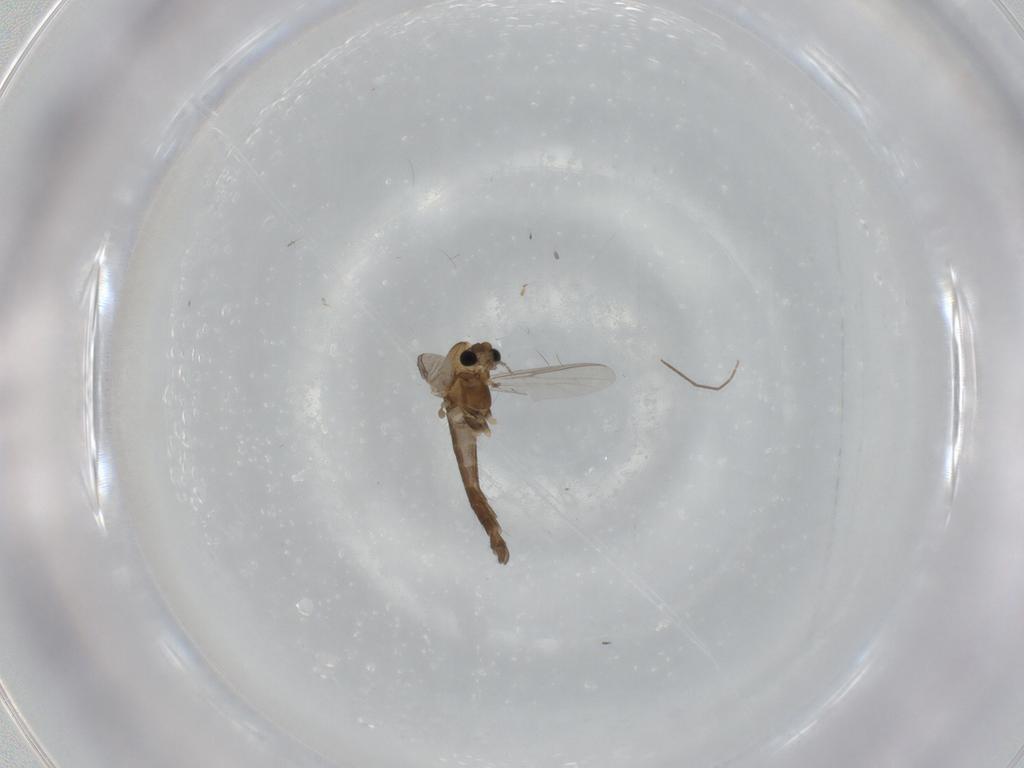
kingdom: Animalia
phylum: Arthropoda
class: Insecta
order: Diptera
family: Chironomidae
